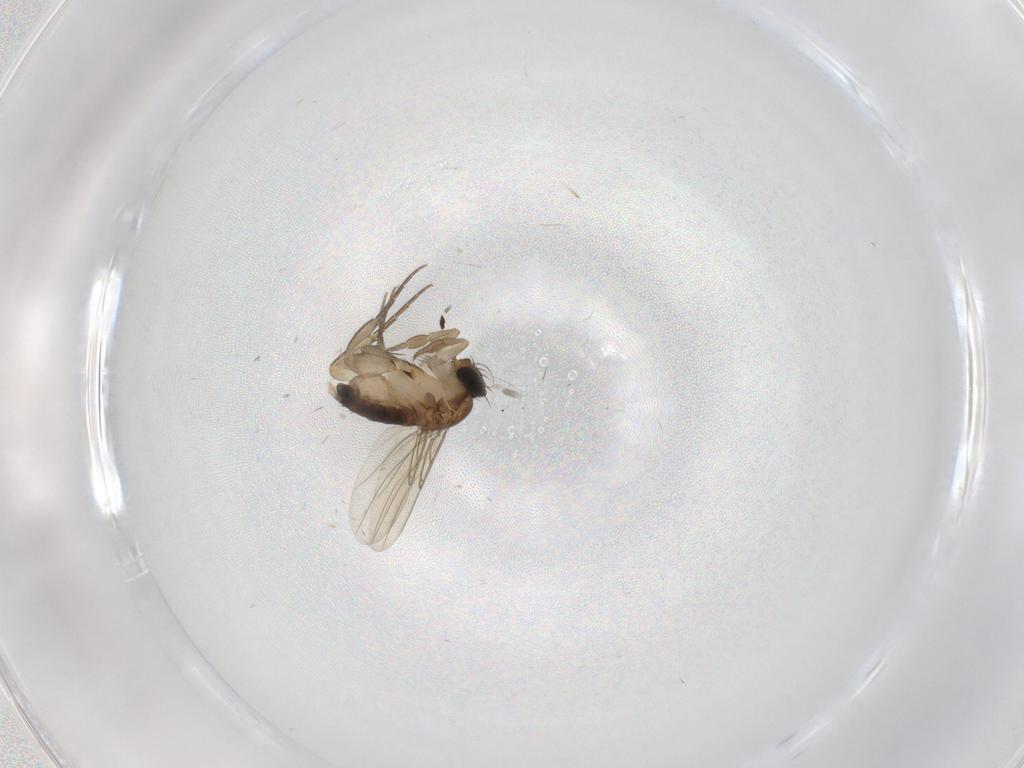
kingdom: Animalia
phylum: Arthropoda
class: Insecta
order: Diptera
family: Phoridae
